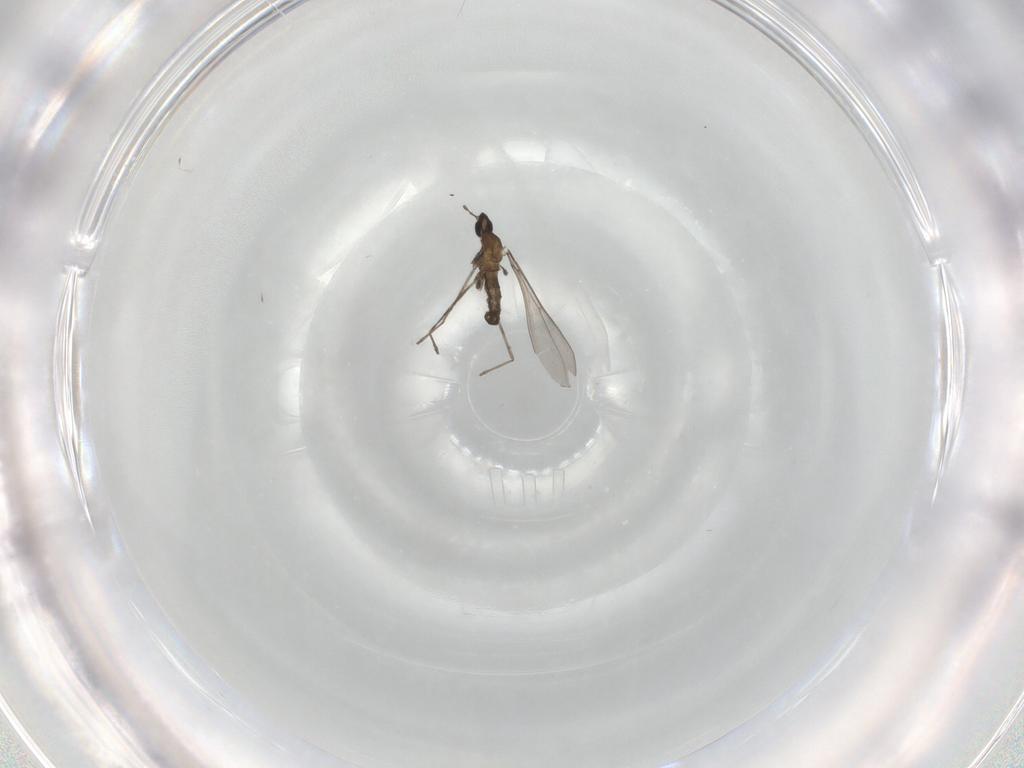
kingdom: Animalia
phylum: Arthropoda
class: Insecta
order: Diptera
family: Cecidomyiidae
